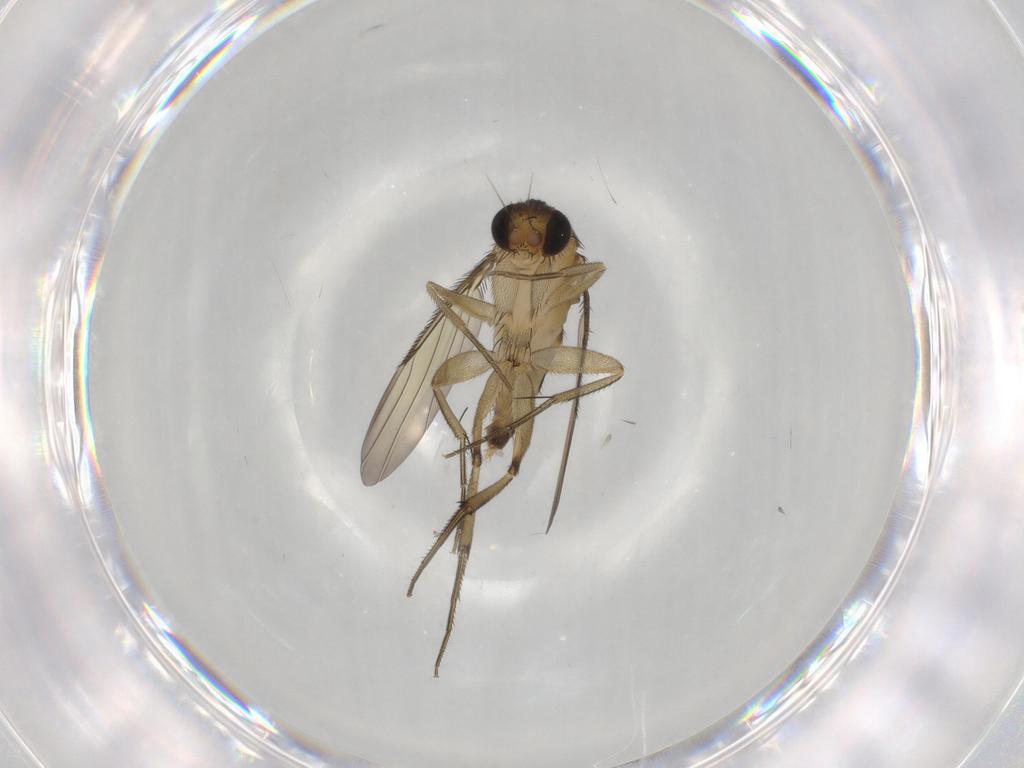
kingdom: Animalia
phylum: Arthropoda
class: Insecta
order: Diptera
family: Phoridae
